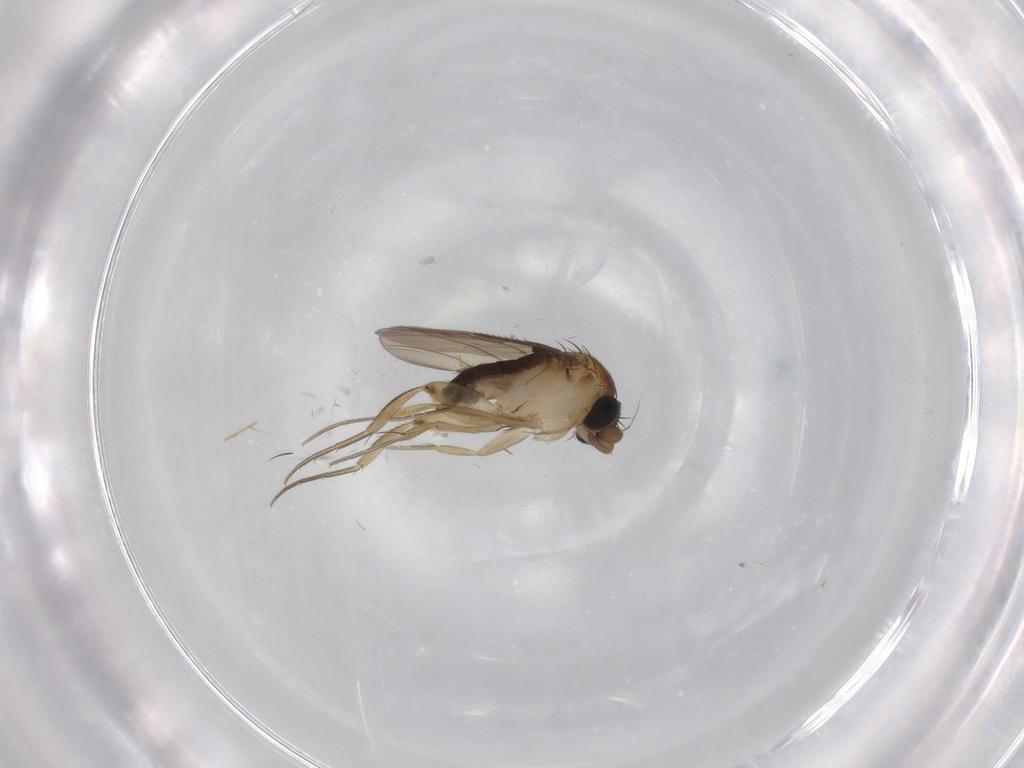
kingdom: Animalia
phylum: Arthropoda
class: Insecta
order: Diptera
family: Phoridae
